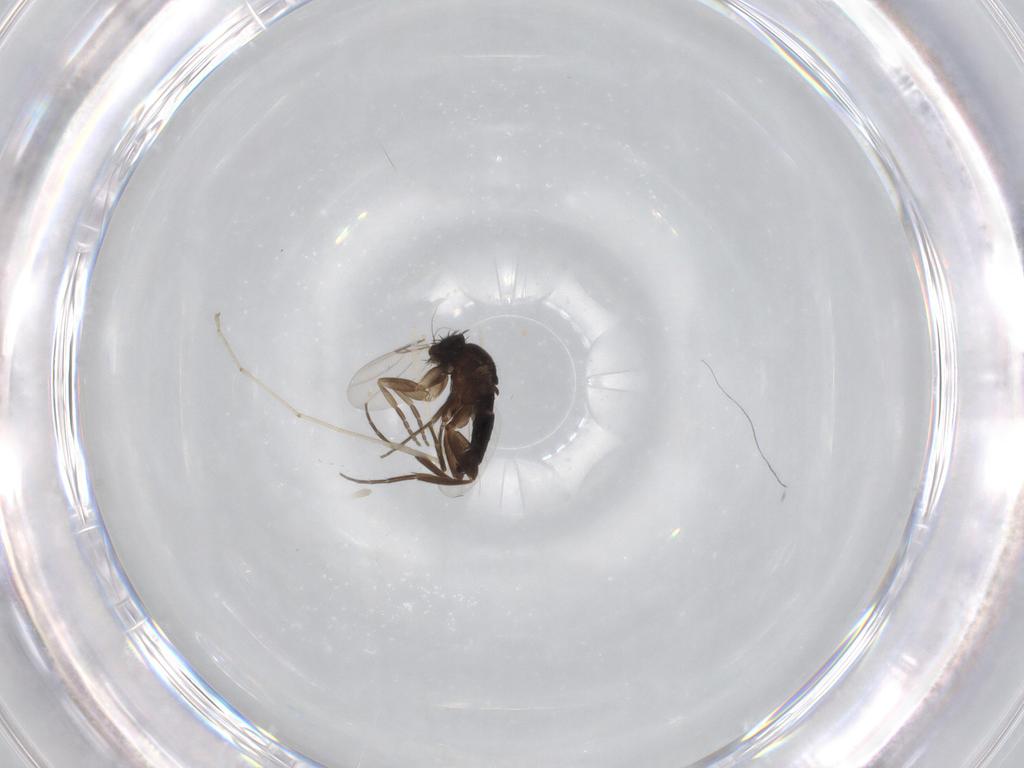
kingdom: Animalia
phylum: Arthropoda
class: Insecta
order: Diptera
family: Phoridae
